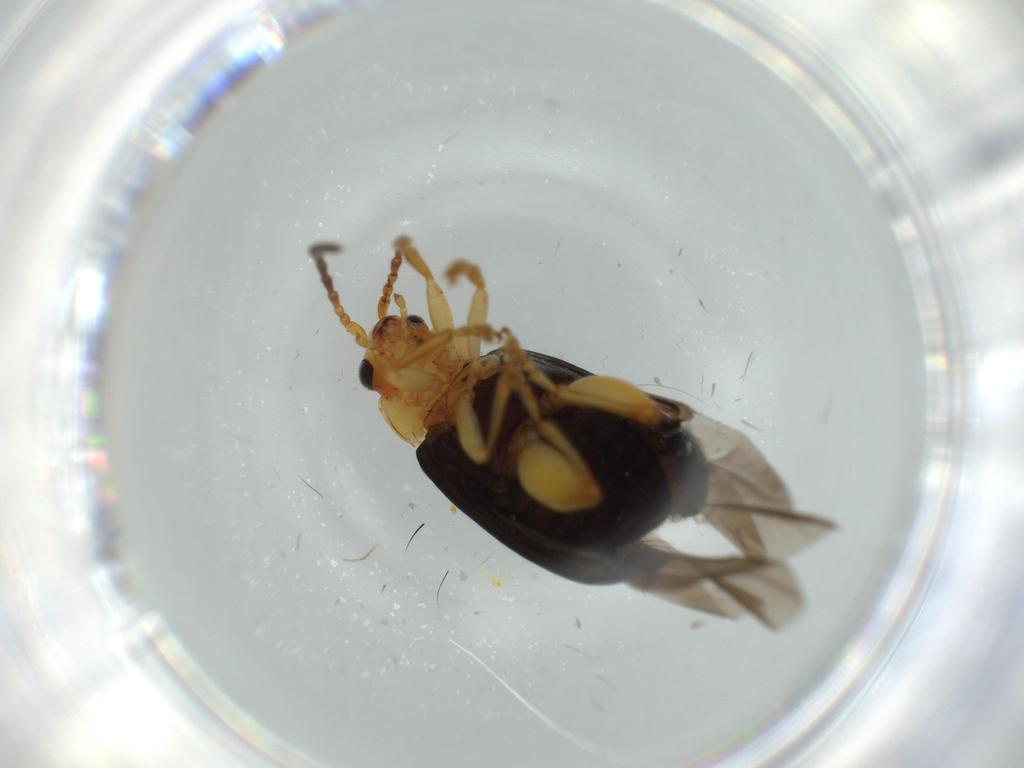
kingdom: Animalia
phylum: Arthropoda
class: Insecta
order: Coleoptera
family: Chrysomelidae
